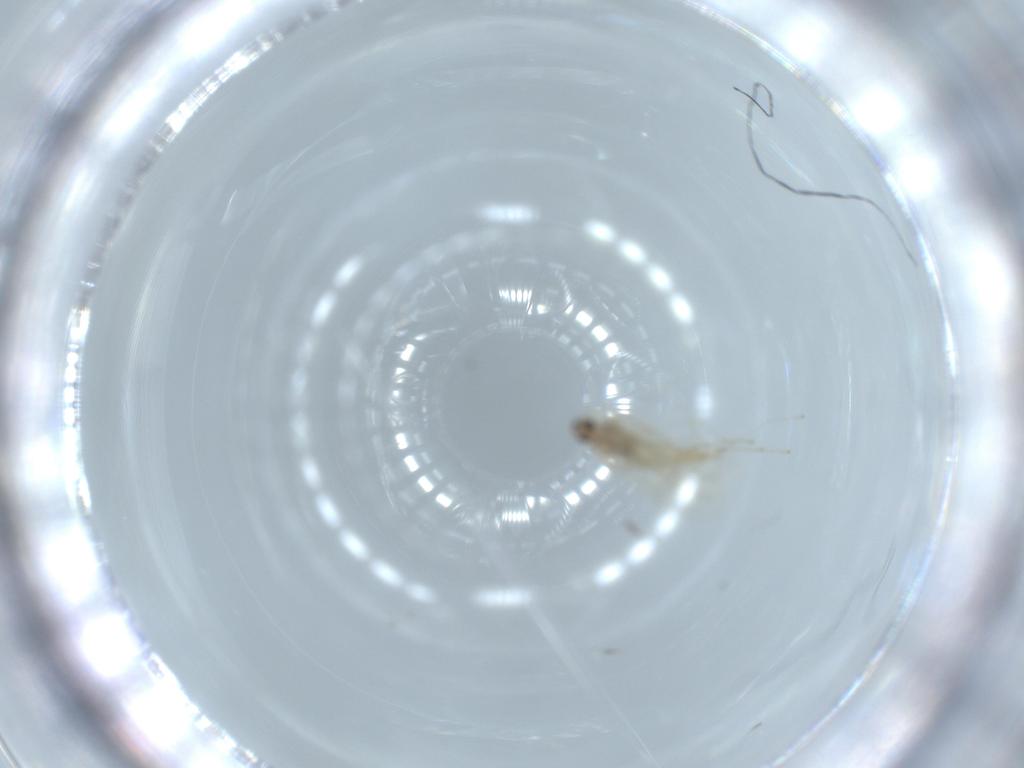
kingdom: Animalia
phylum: Arthropoda
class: Insecta
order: Diptera
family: Cecidomyiidae
